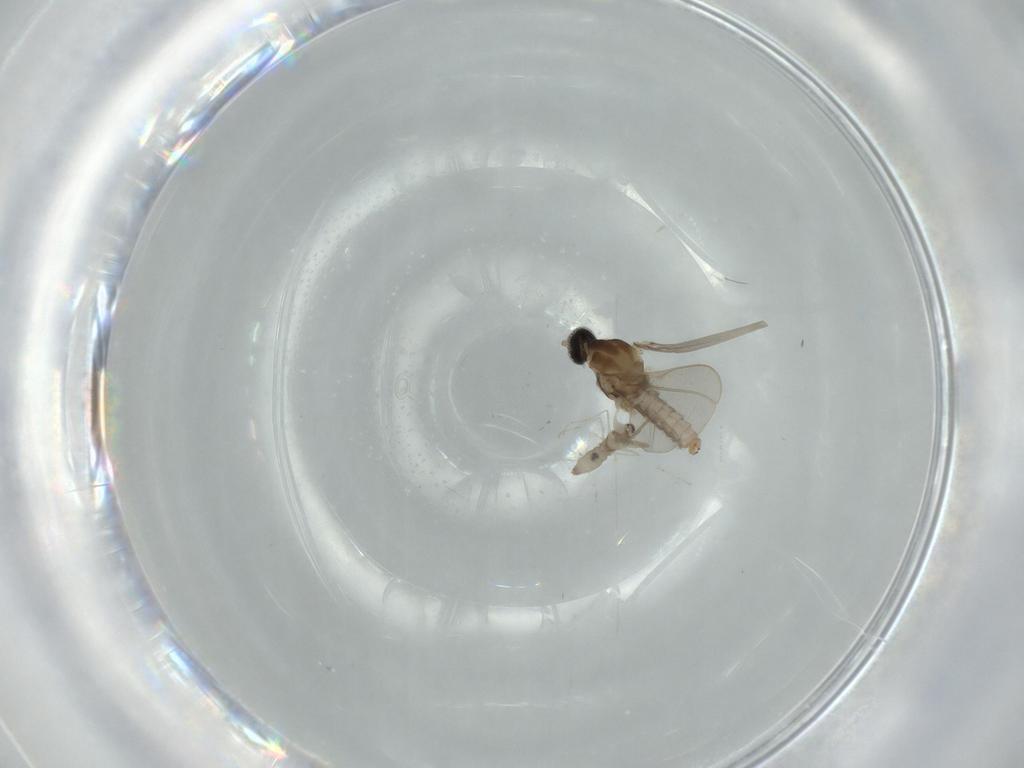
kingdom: Animalia
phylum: Arthropoda
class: Insecta
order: Diptera
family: Cecidomyiidae
